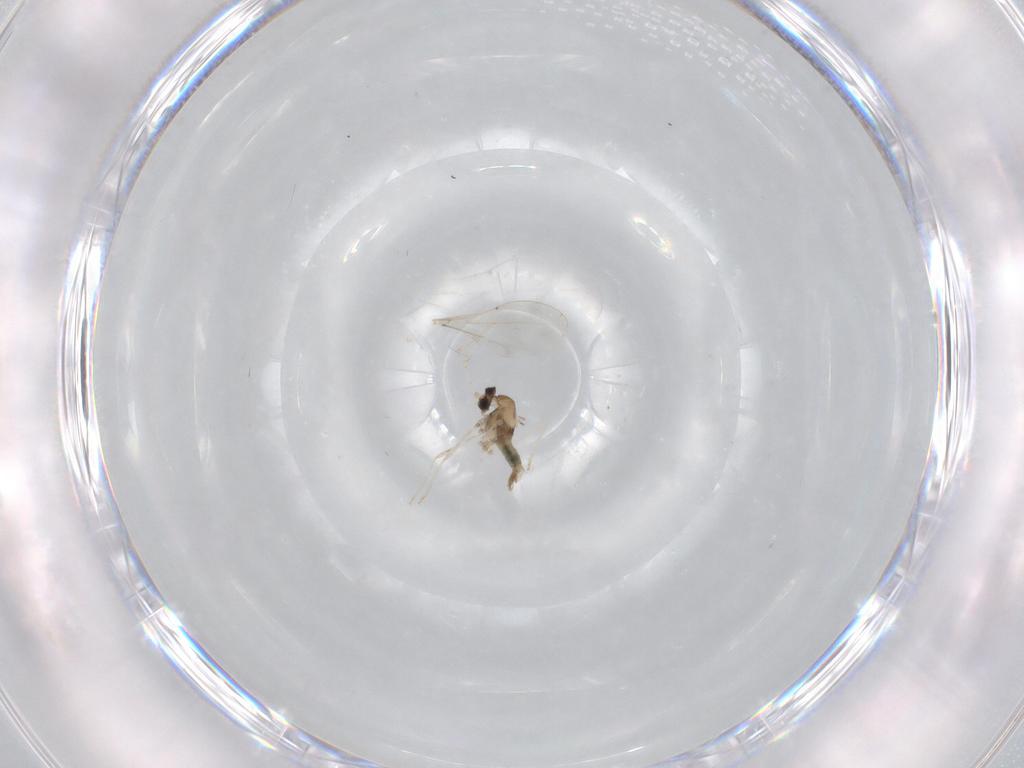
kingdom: Animalia
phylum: Arthropoda
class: Insecta
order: Diptera
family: Cecidomyiidae
